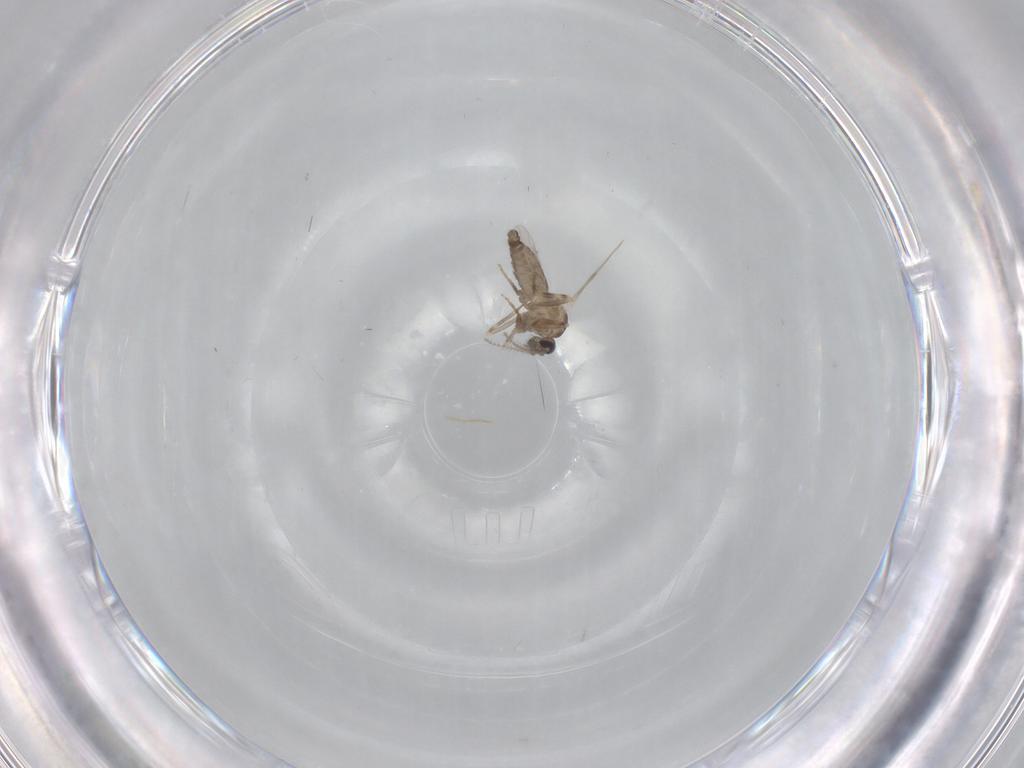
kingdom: Animalia
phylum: Arthropoda
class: Insecta
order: Diptera
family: Ceratopogonidae
